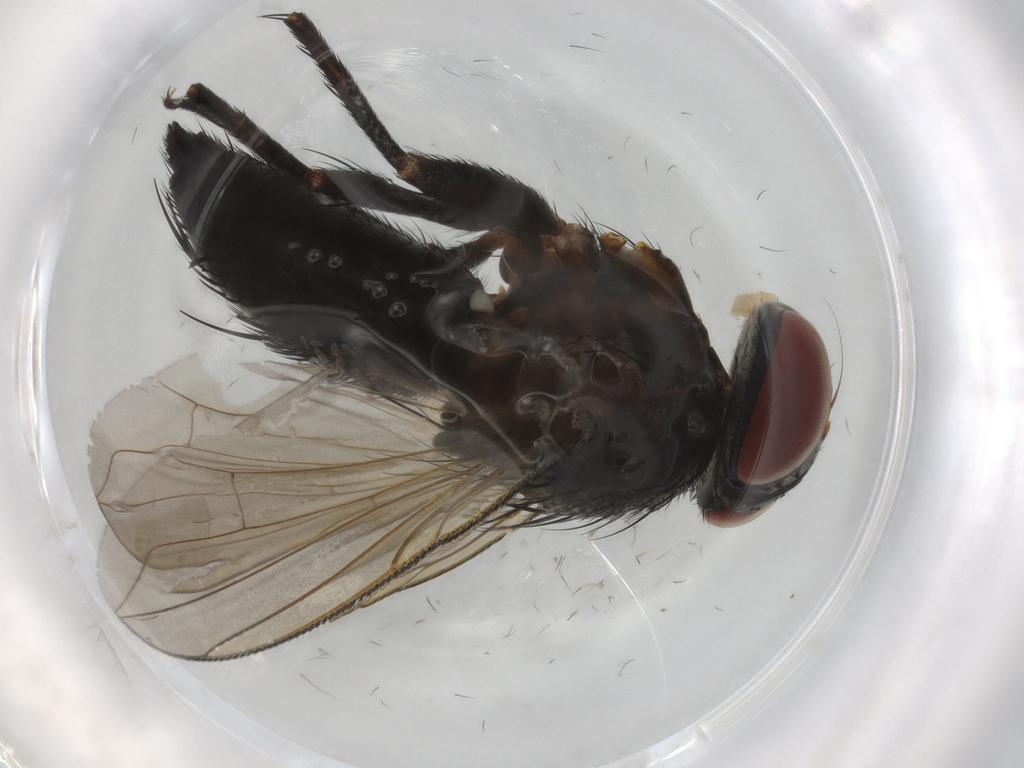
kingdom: Animalia
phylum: Arthropoda
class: Insecta
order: Diptera
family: Tachinidae
